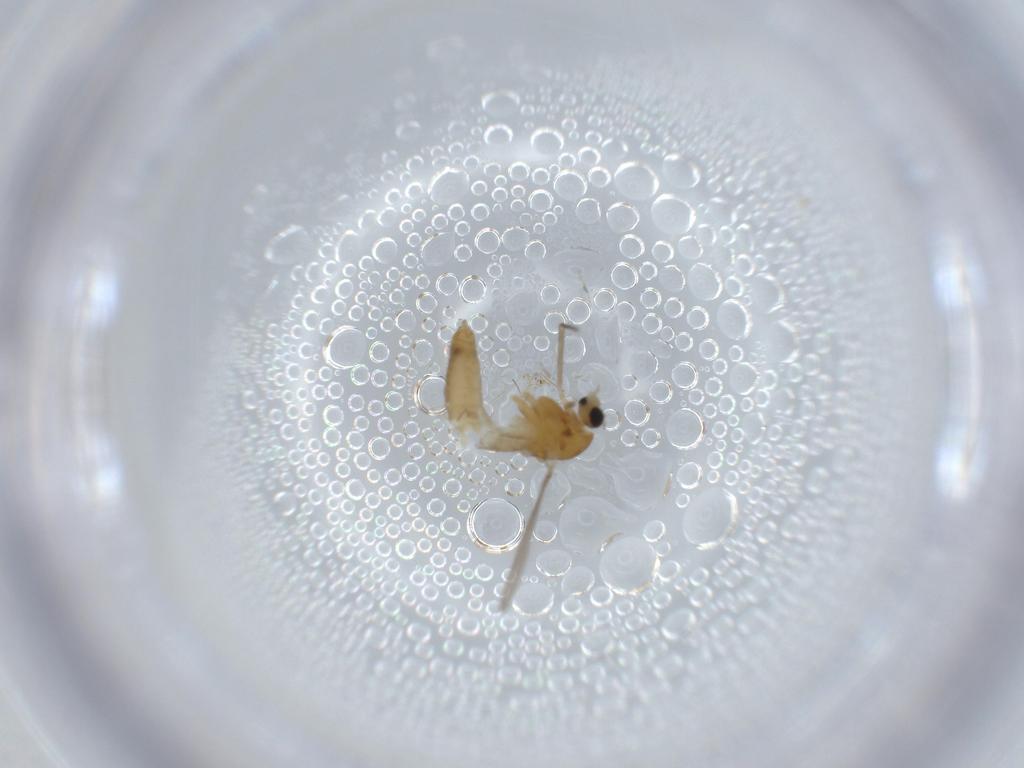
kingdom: Animalia
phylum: Arthropoda
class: Insecta
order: Diptera
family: Chironomidae
